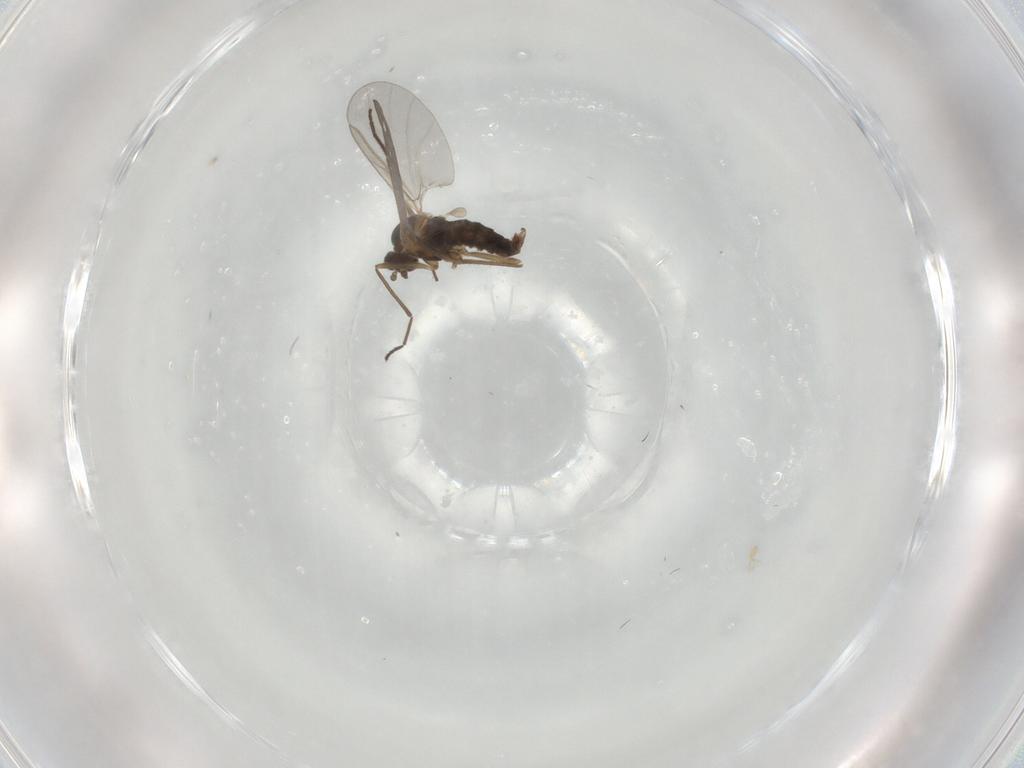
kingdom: Animalia
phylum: Arthropoda
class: Insecta
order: Diptera
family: Cecidomyiidae
